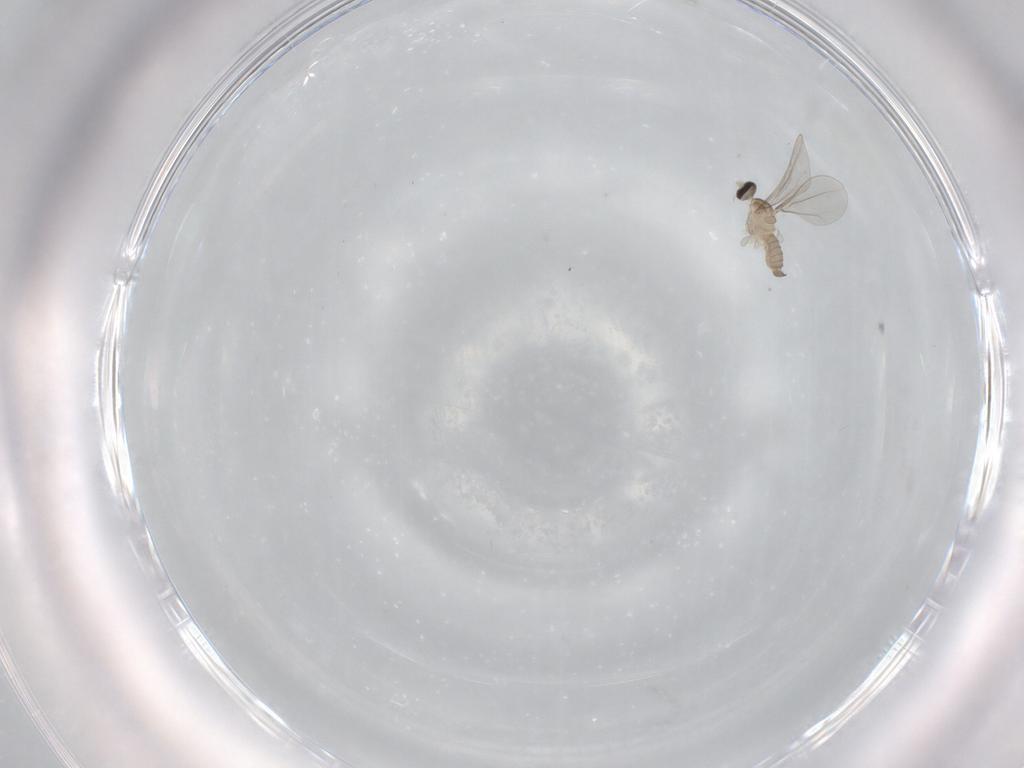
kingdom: Animalia
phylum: Arthropoda
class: Insecta
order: Diptera
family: Cecidomyiidae
